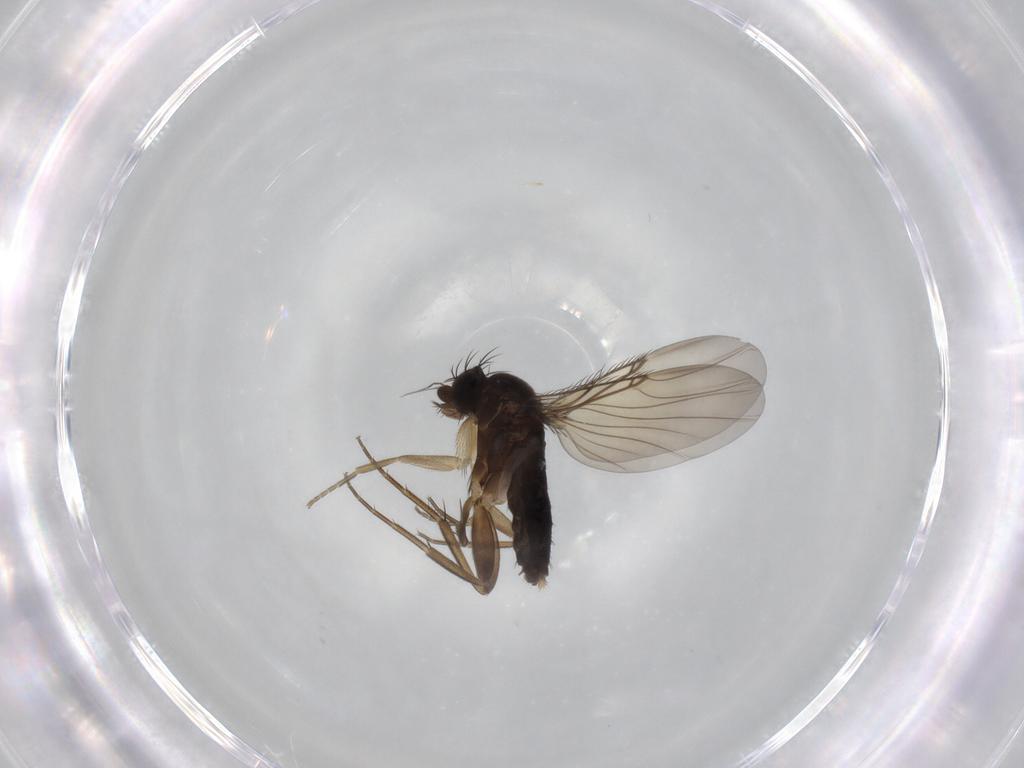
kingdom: Animalia
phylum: Arthropoda
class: Insecta
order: Diptera
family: Phoridae
